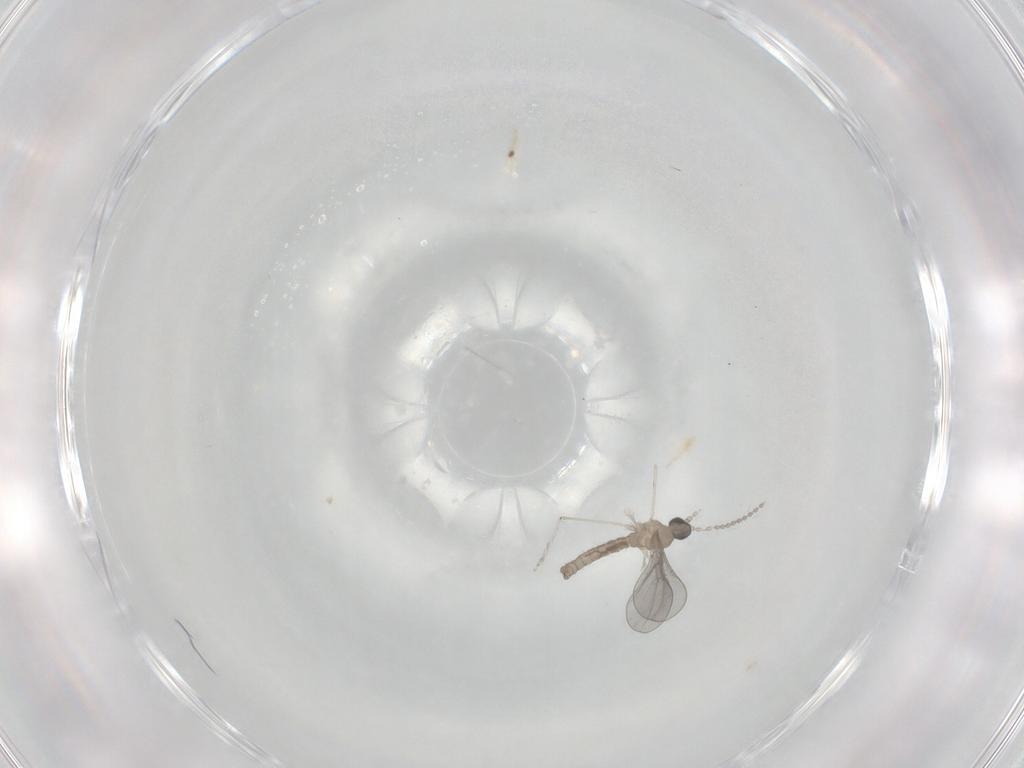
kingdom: Animalia
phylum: Arthropoda
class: Insecta
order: Diptera
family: Cecidomyiidae
